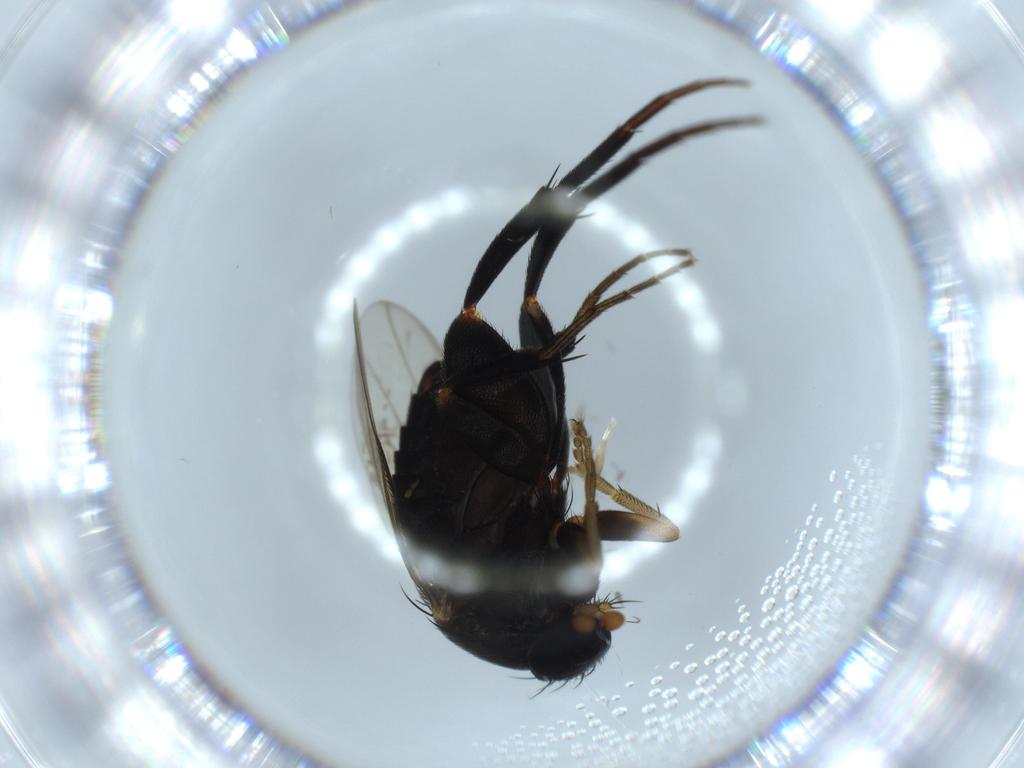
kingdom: Animalia
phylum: Arthropoda
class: Insecta
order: Diptera
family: Phoridae
